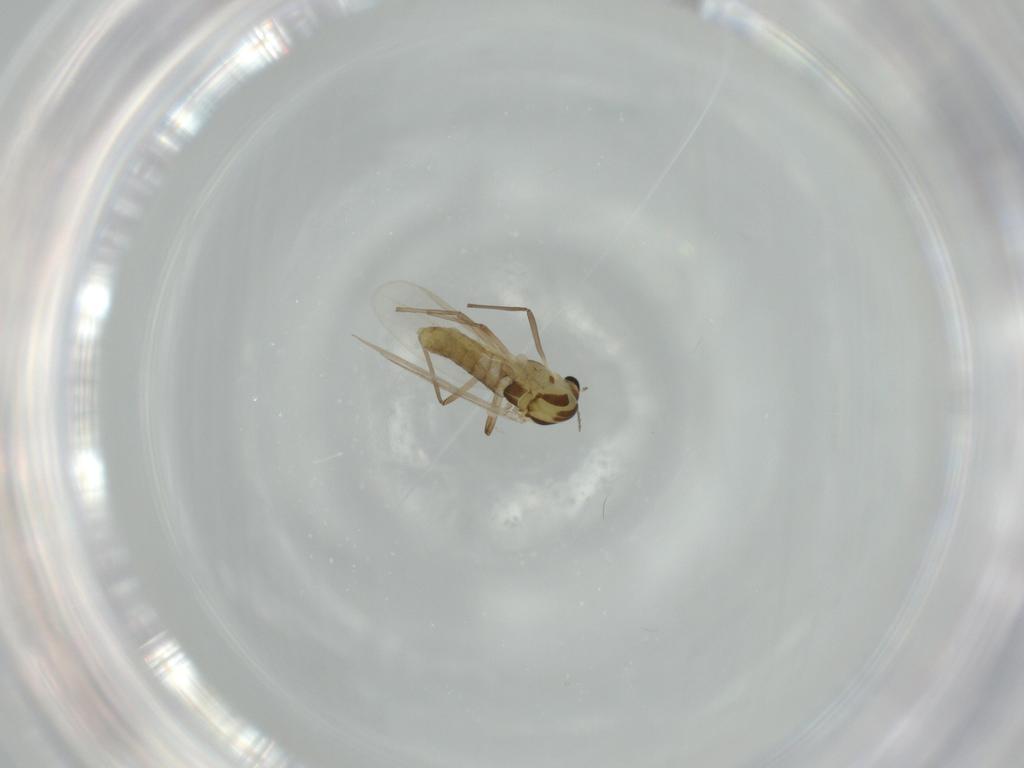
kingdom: Animalia
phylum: Arthropoda
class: Insecta
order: Diptera
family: Chironomidae
